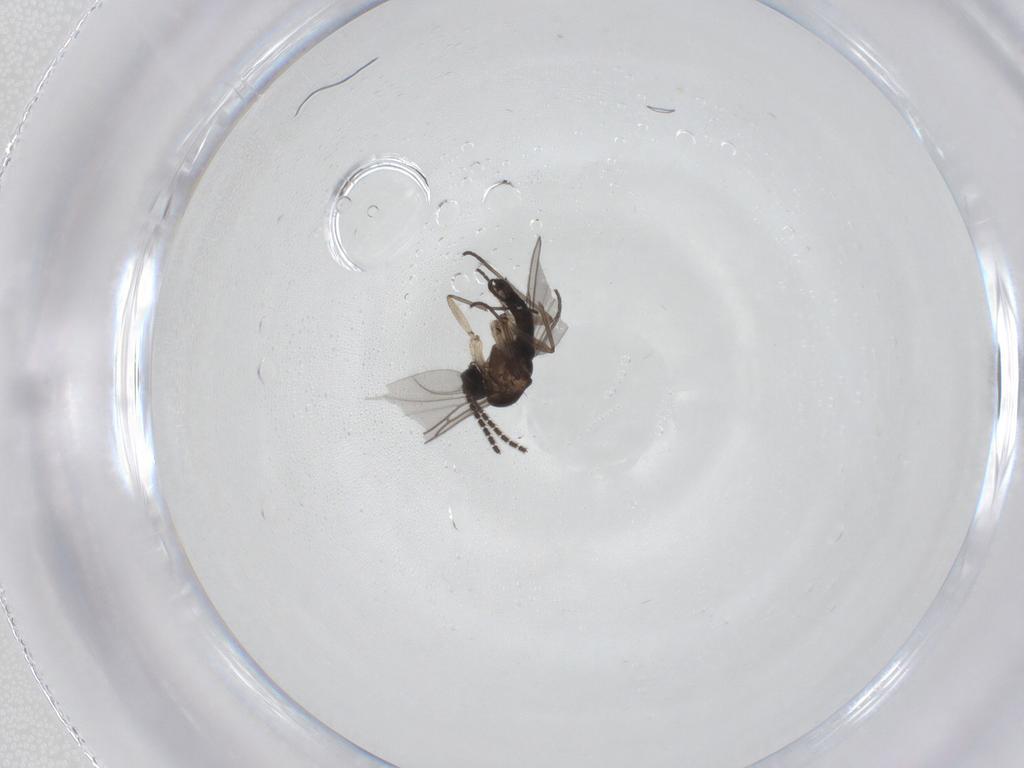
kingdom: Animalia
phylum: Arthropoda
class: Insecta
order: Diptera
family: Sciaridae
